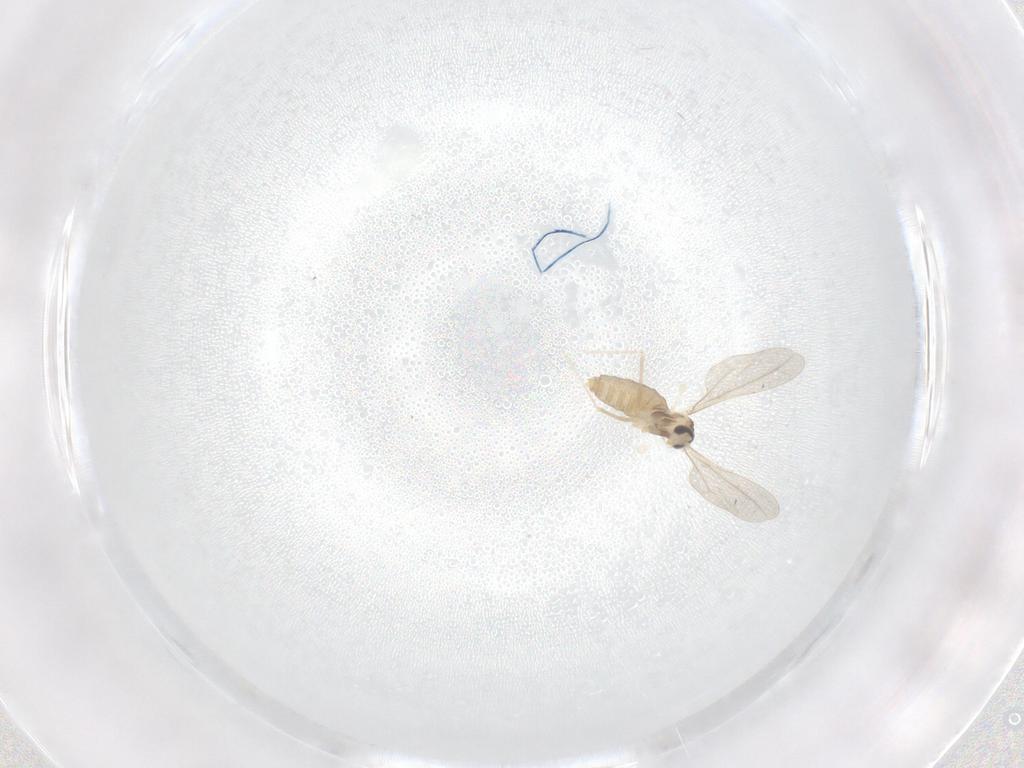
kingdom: Animalia
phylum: Arthropoda
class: Insecta
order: Diptera
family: Cecidomyiidae
